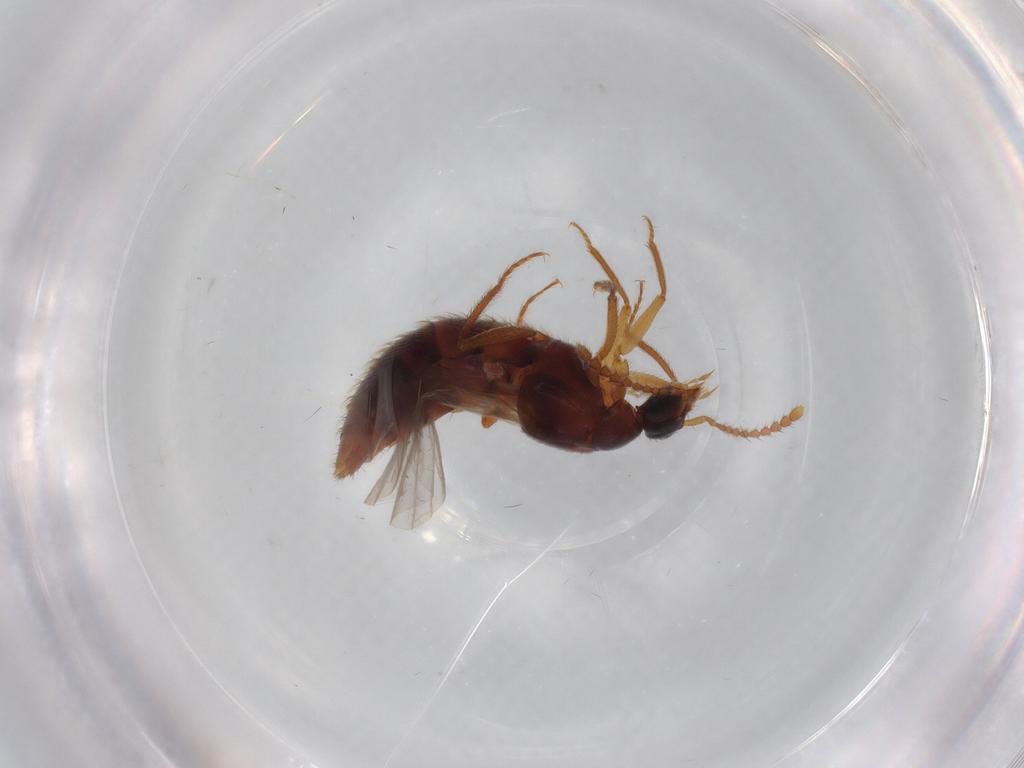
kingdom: Animalia
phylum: Arthropoda
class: Insecta
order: Coleoptera
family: Staphylinidae
